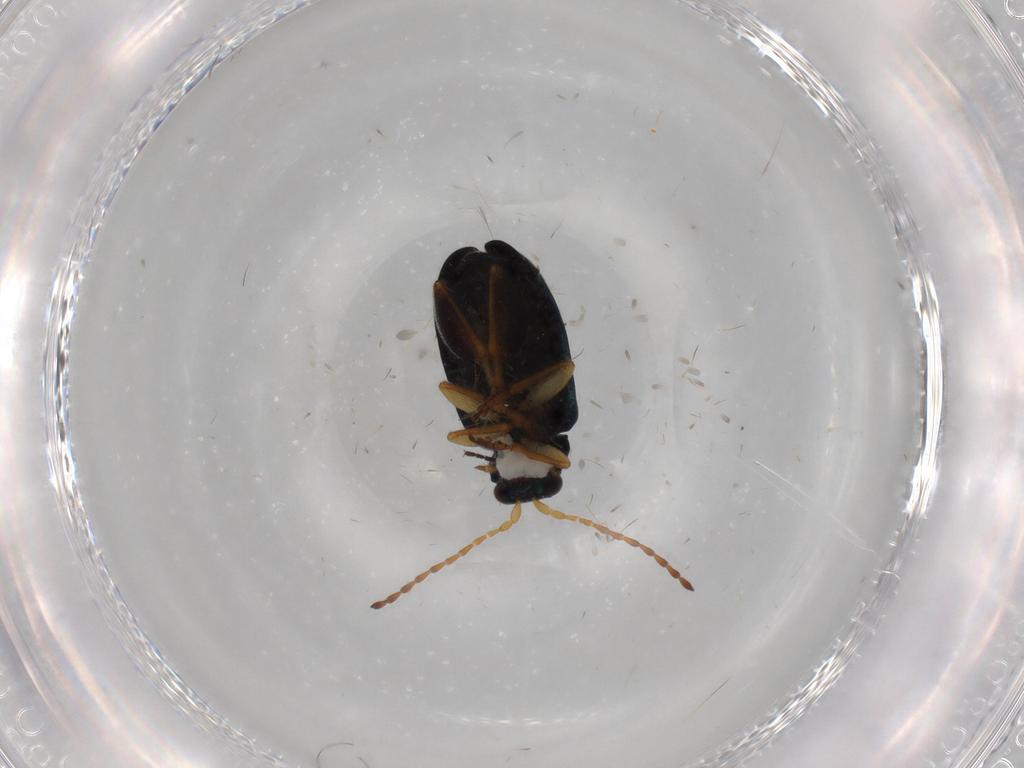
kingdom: Animalia
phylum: Arthropoda
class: Insecta
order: Coleoptera
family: Chrysomelidae
